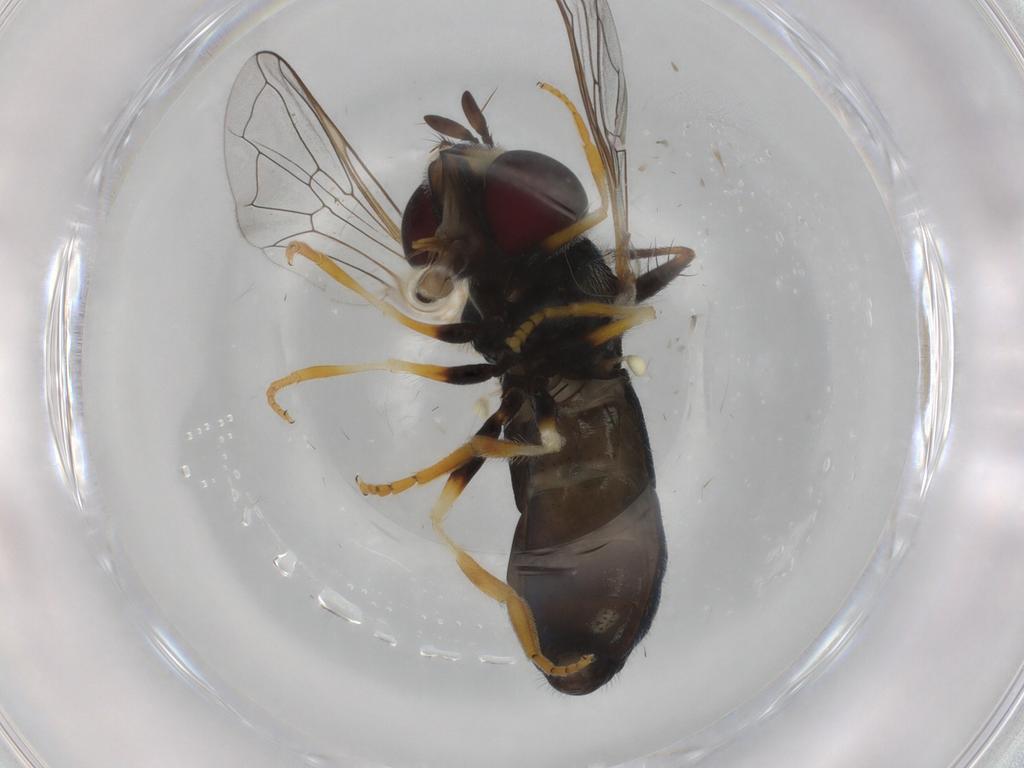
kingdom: Animalia
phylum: Arthropoda
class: Insecta
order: Diptera
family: Syrphidae
